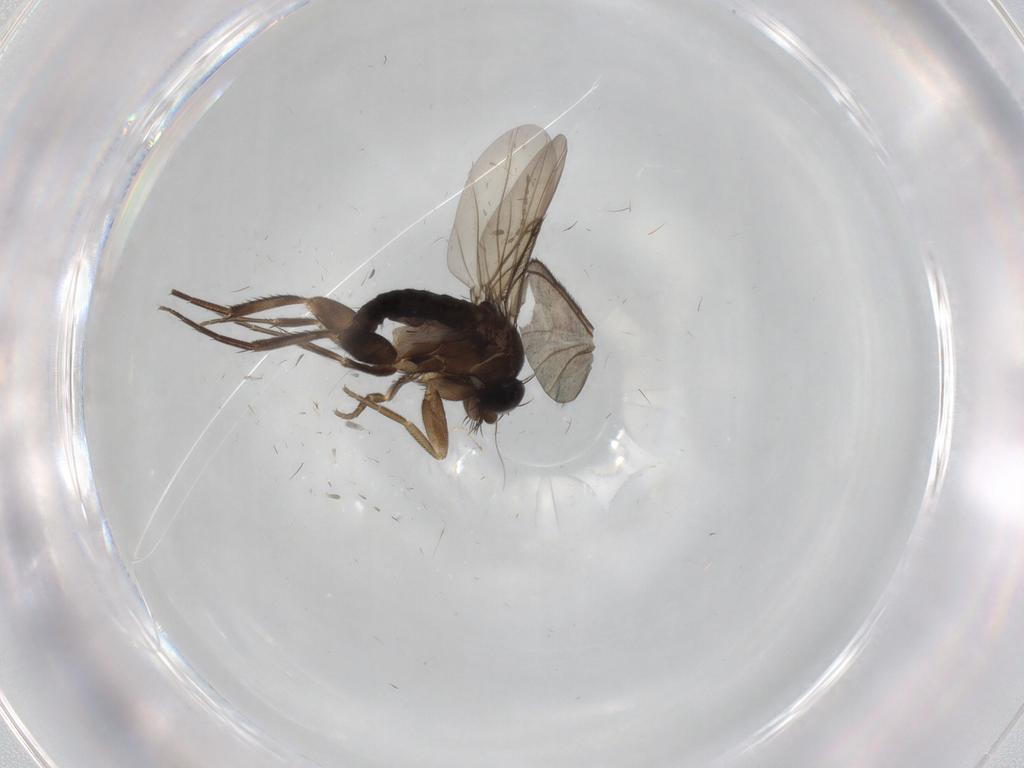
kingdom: Animalia
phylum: Arthropoda
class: Insecta
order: Diptera
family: Phoridae
